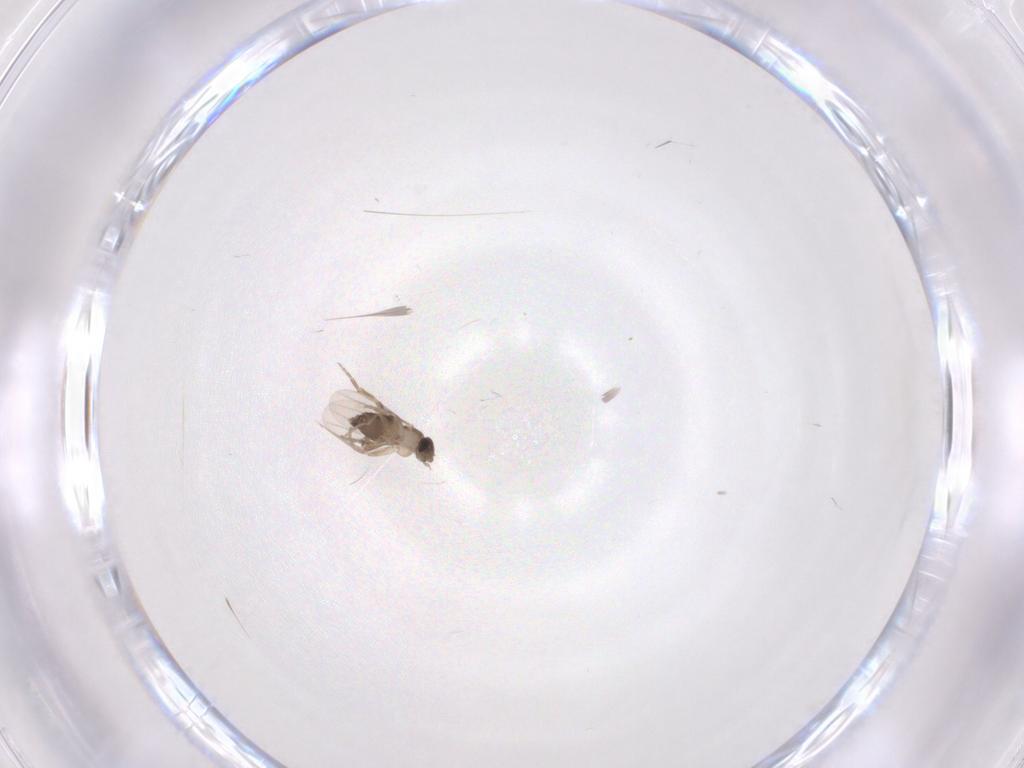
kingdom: Animalia
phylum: Arthropoda
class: Insecta
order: Diptera
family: Phoridae
